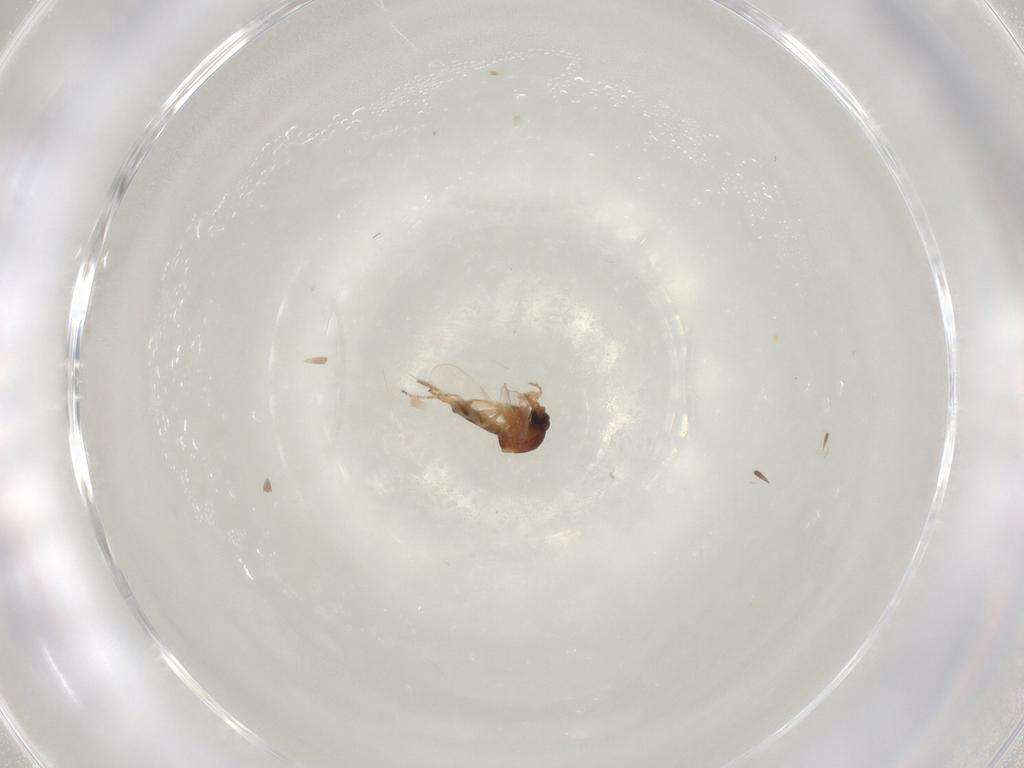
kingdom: Animalia
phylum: Arthropoda
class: Insecta
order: Diptera
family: Ceratopogonidae
